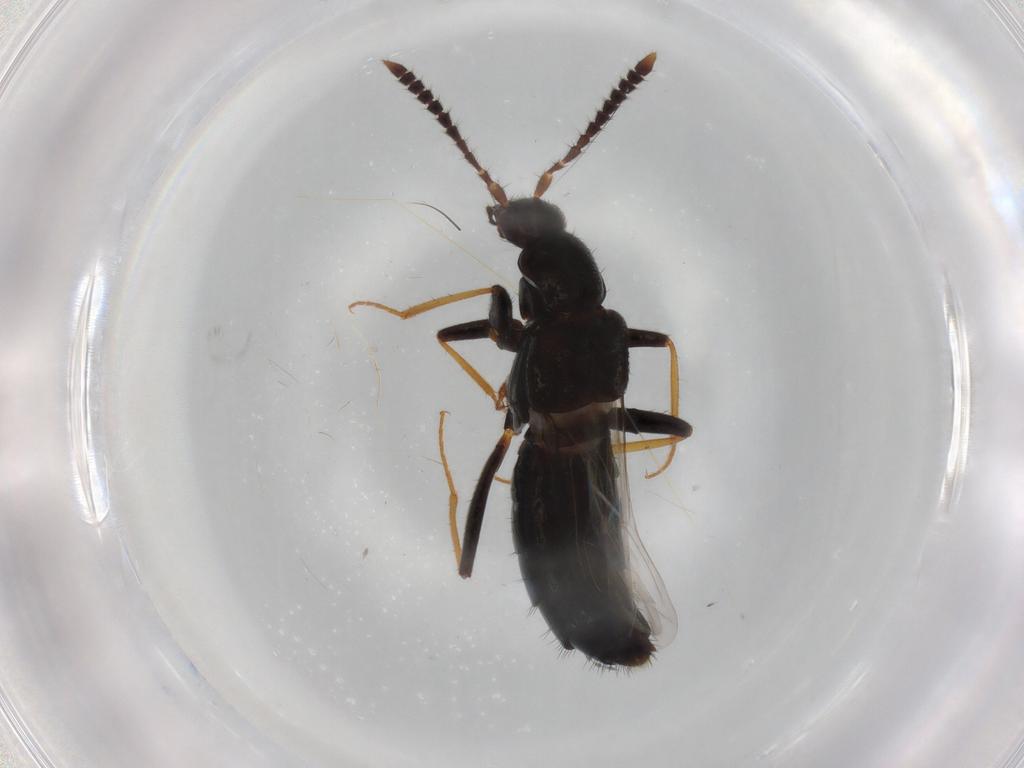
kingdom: Animalia
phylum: Arthropoda
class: Insecta
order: Coleoptera
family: Staphylinidae
